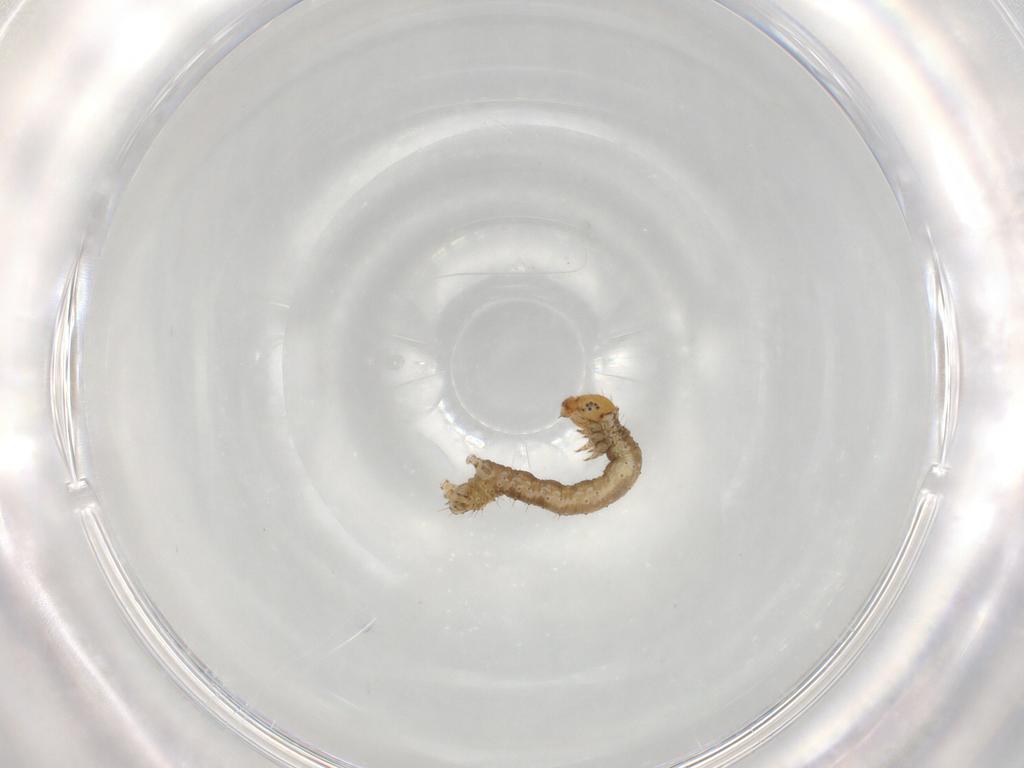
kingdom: Animalia
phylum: Arthropoda
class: Insecta
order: Lepidoptera
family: Geometridae
